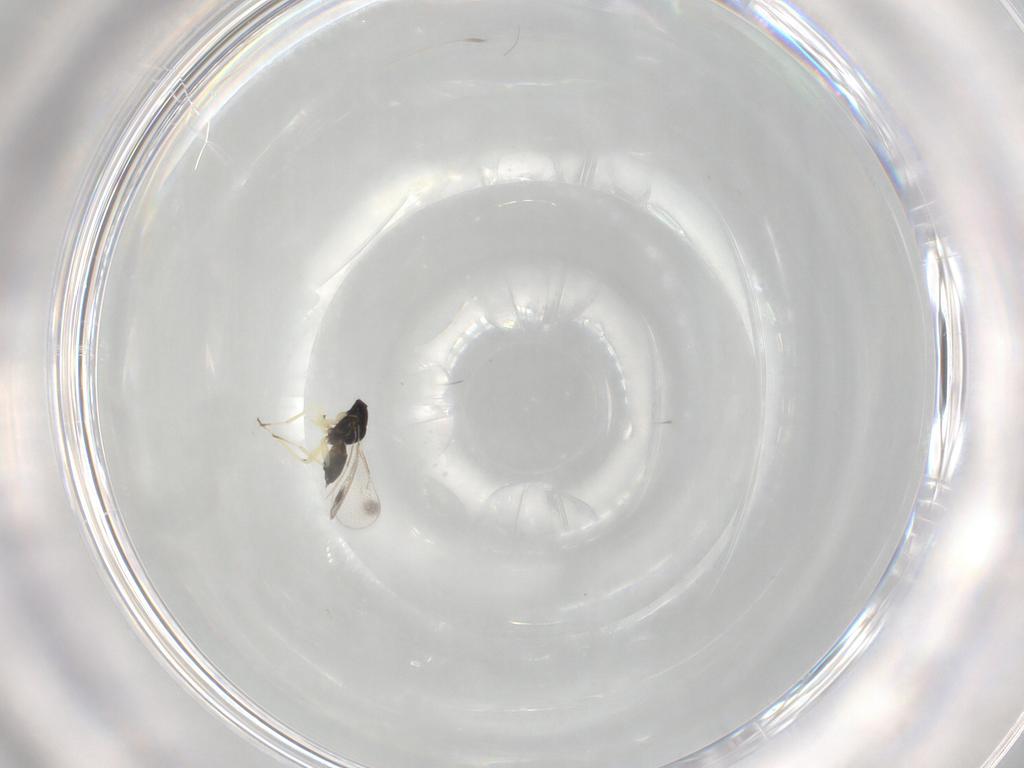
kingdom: Animalia
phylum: Arthropoda
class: Insecta
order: Hymenoptera
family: Eulophidae
